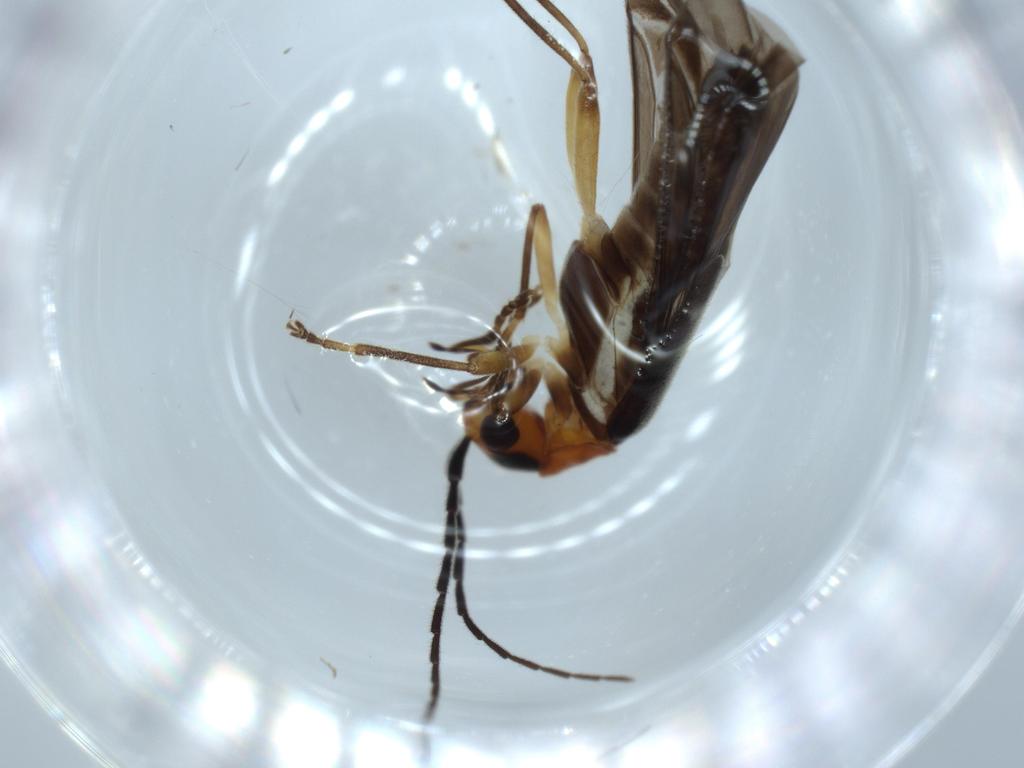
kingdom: Animalia
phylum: Arthropoda
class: Insecta
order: Coleoptera
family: Cantharidae
